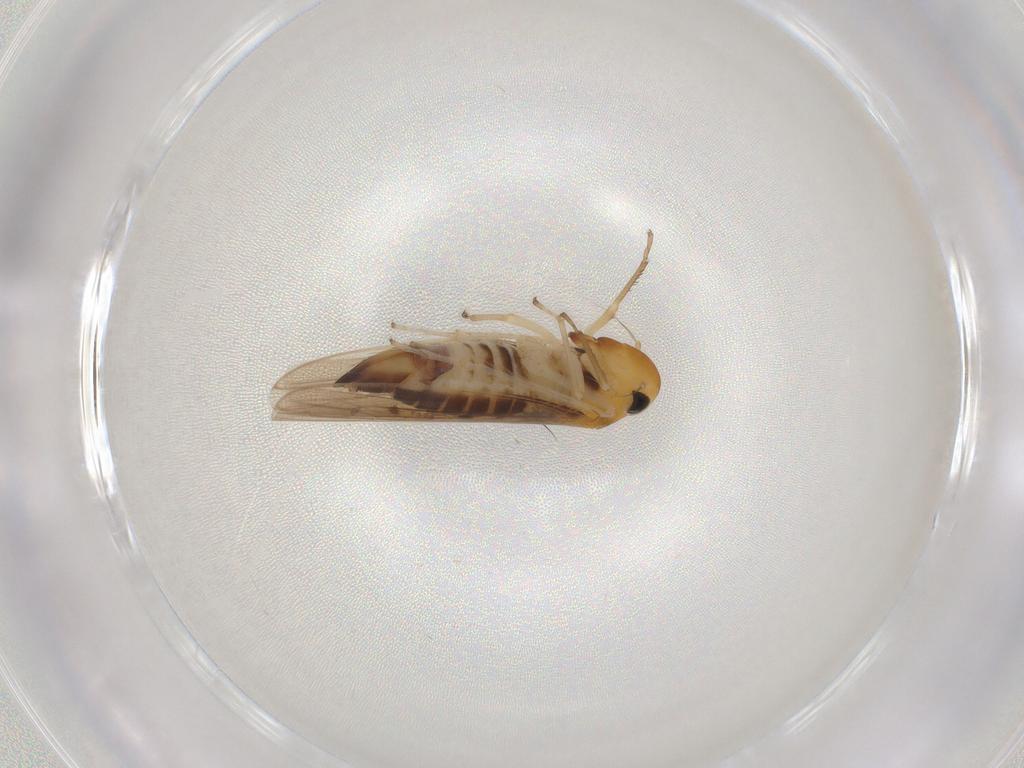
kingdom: Animalia
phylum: Arthropoda
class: Insecta
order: Hemiptera
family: Cicadellidae
